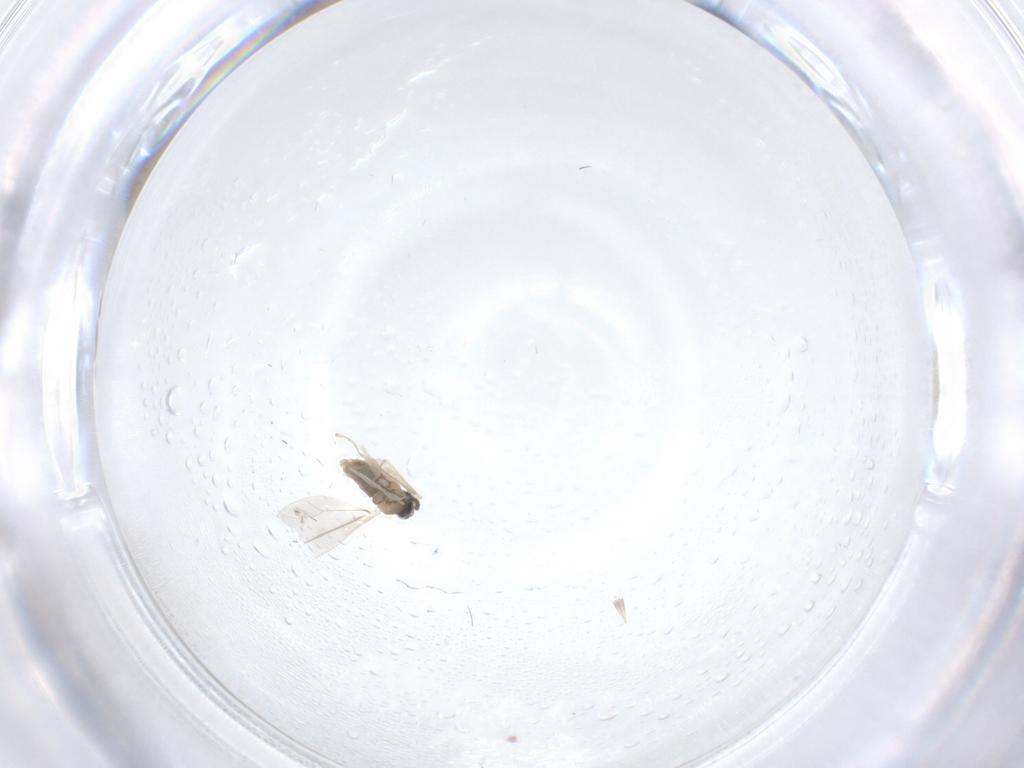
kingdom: Animalia
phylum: Arthropoda
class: Insecta
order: Diptera
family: Cecidomyiidae
